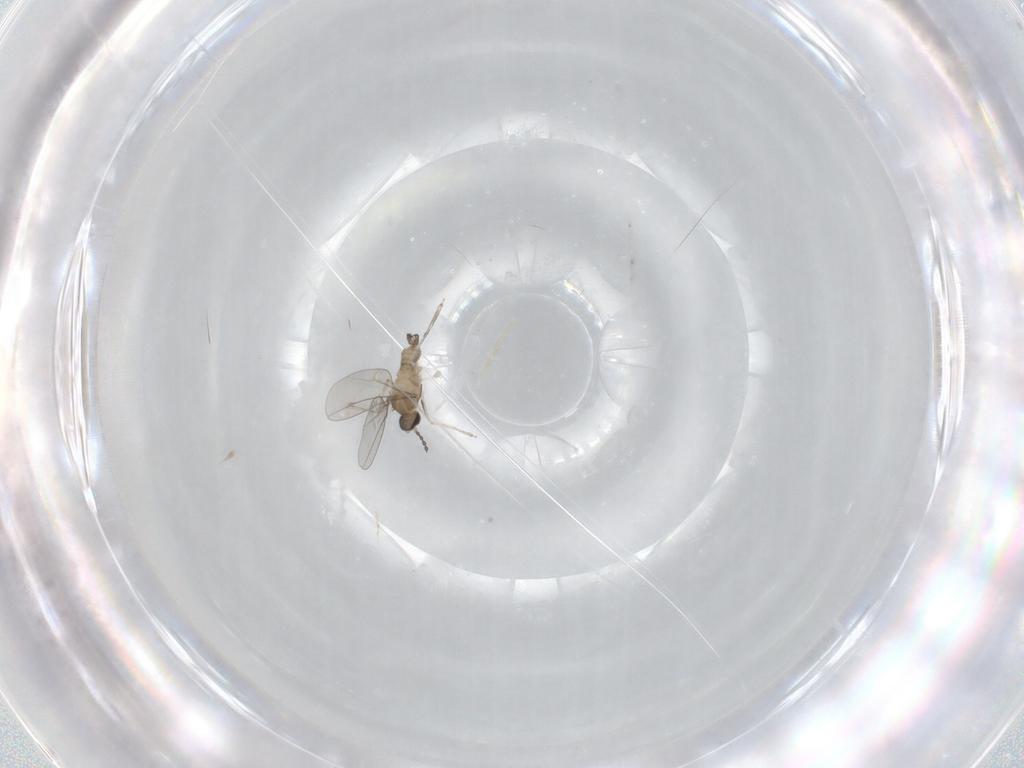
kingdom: Animalia
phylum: Arthropoda
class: Insecta
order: Diptera
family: Cecidomyiidae
